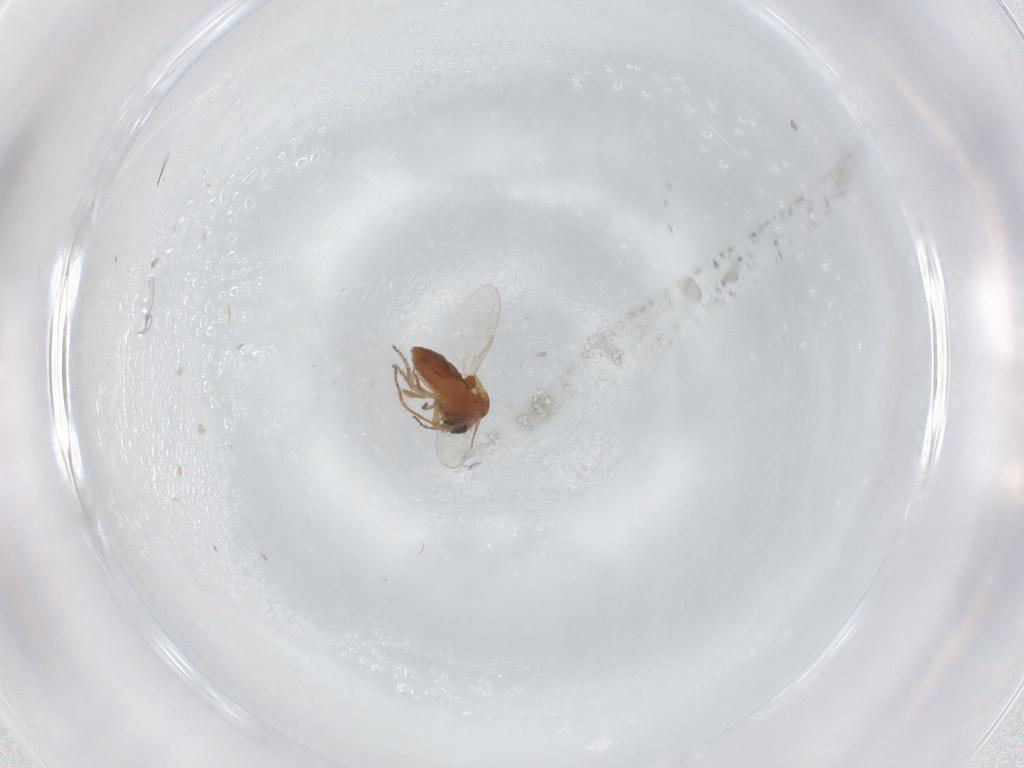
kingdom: Animalia
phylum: Arthropoda
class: Insecta
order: Diptera
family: Ceratopogonidae
